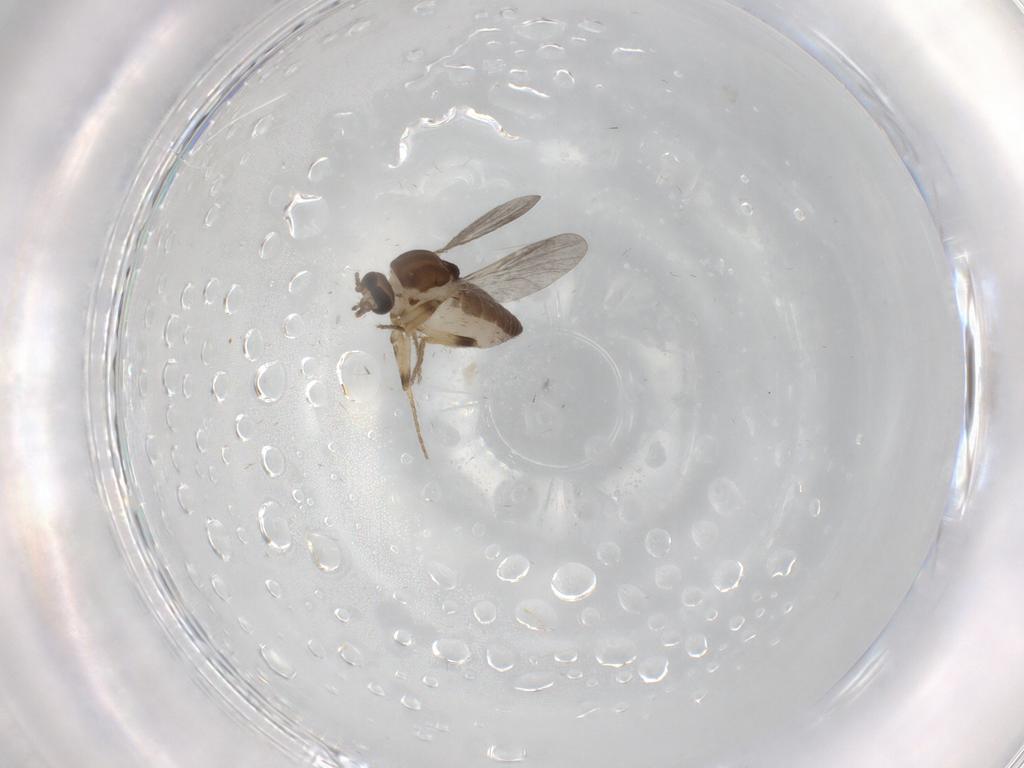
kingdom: Animalia
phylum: Arthropoda
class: Insecta
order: Diptera
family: Ceratopogonidae
